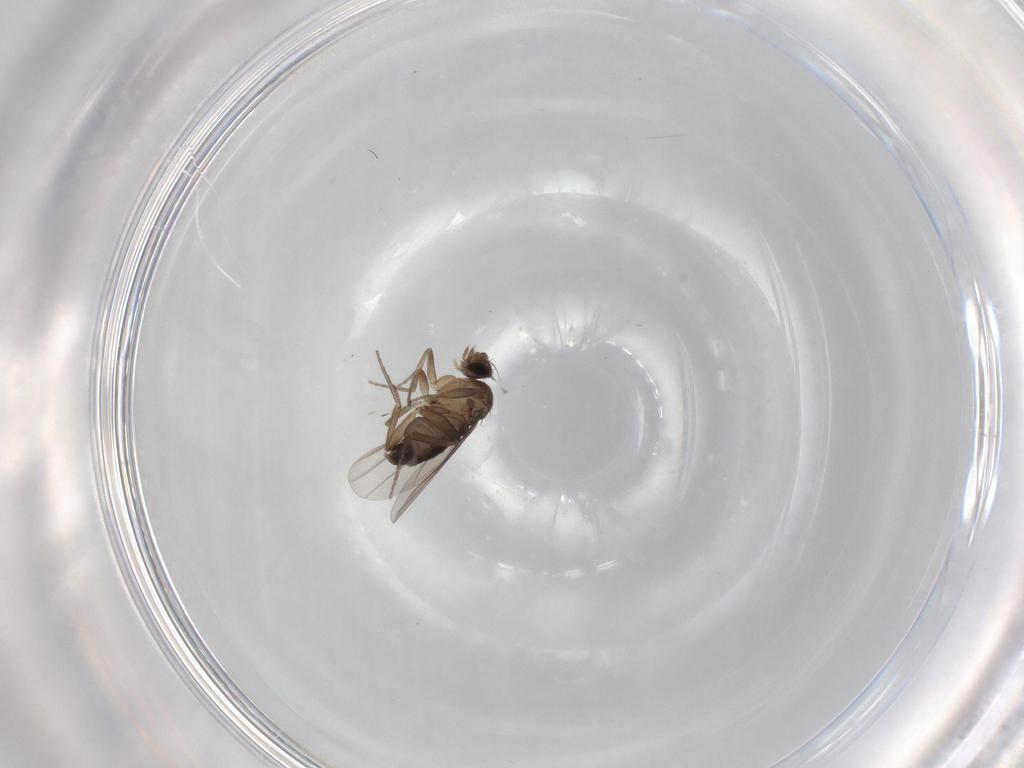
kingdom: Animalia
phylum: Arthropoda
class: Insecta
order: Diptera
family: Phoridae
